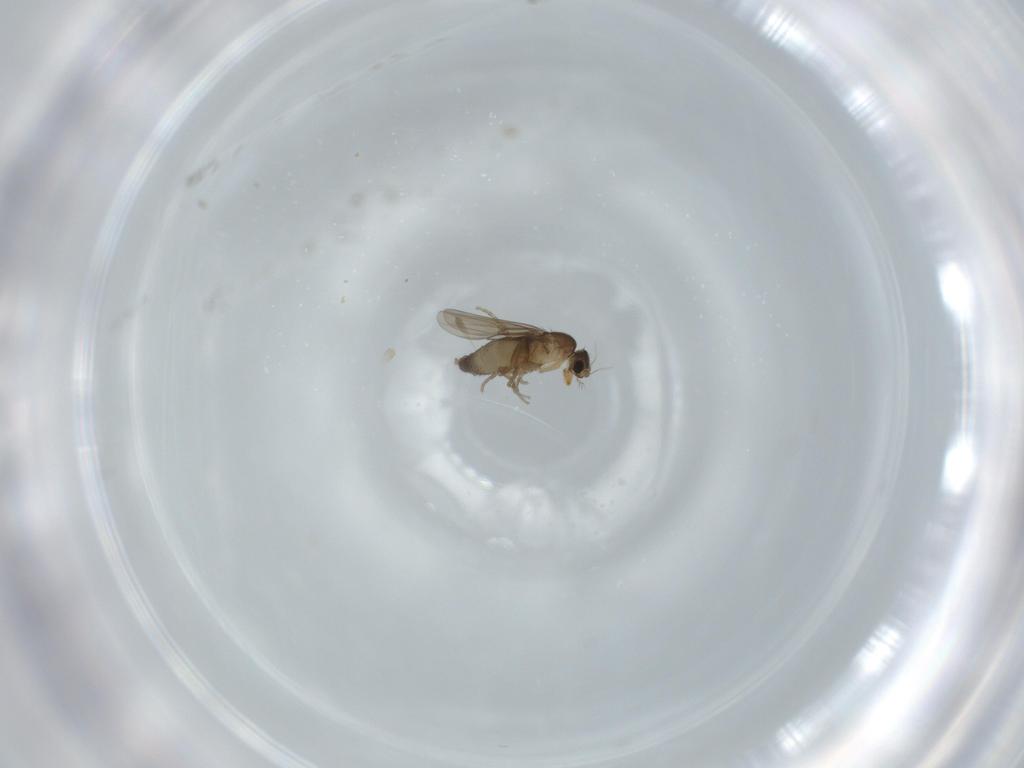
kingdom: Animalia
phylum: Arthropoda
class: Insecta
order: Diptera
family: Phoridae
